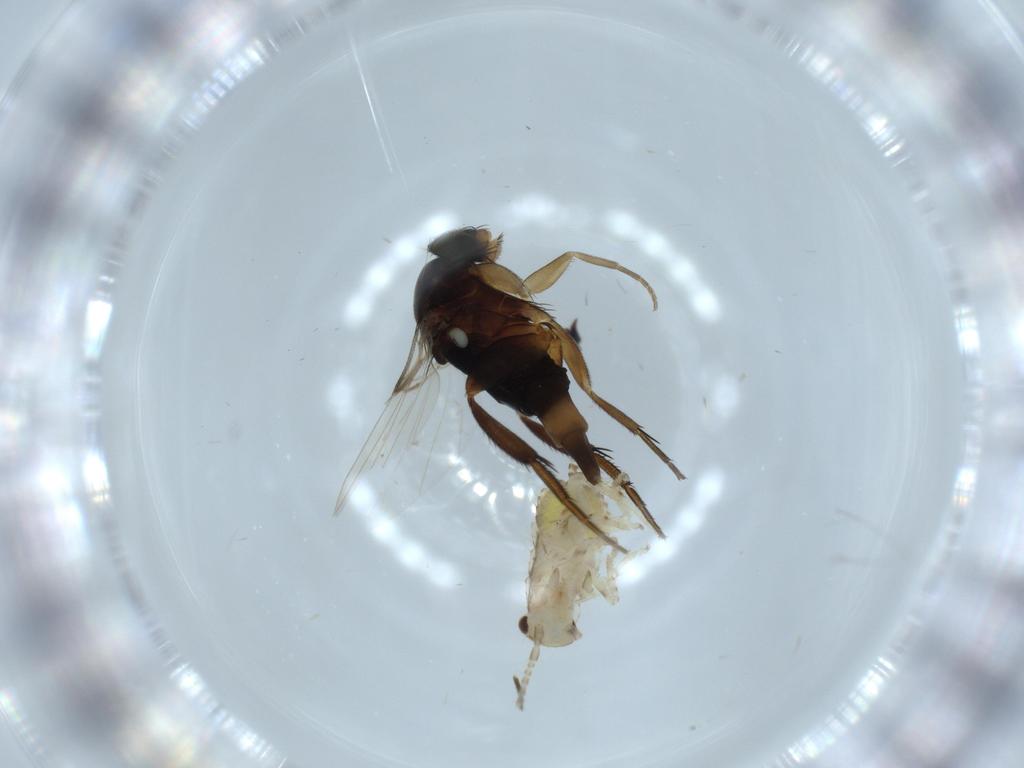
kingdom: Animalia
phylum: Arthropoda
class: Insecta
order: Diptera
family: Phoridae
